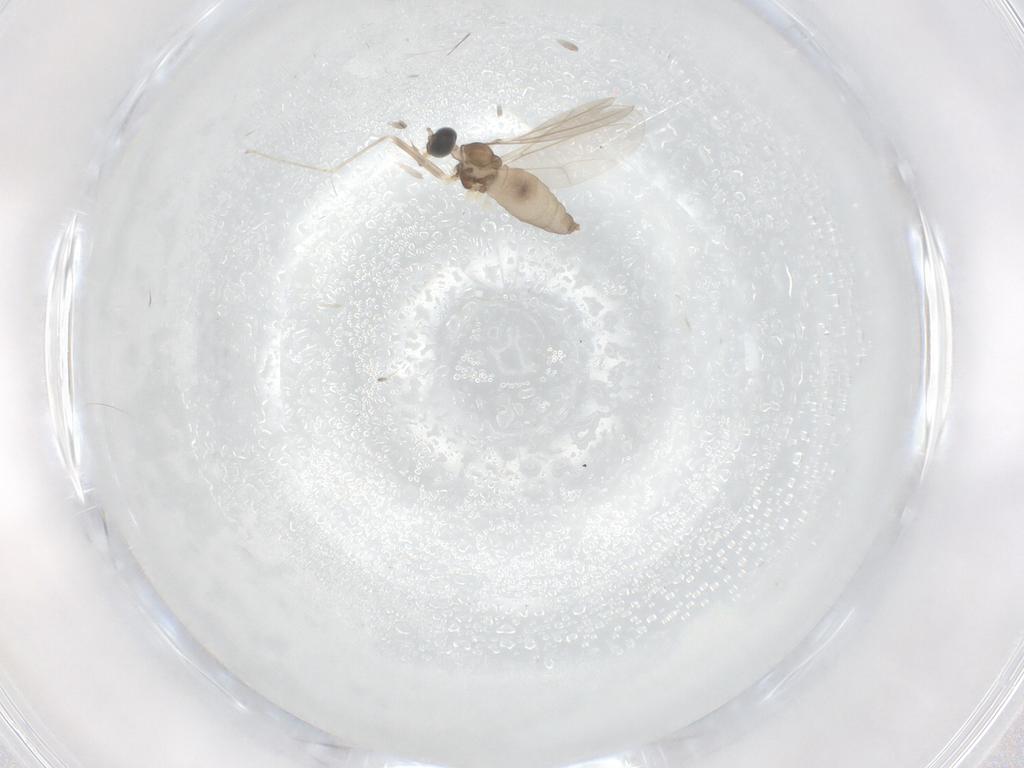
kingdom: Animalia
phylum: Arthropoda
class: Insecta
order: Diptera
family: Cecidomyiidae
